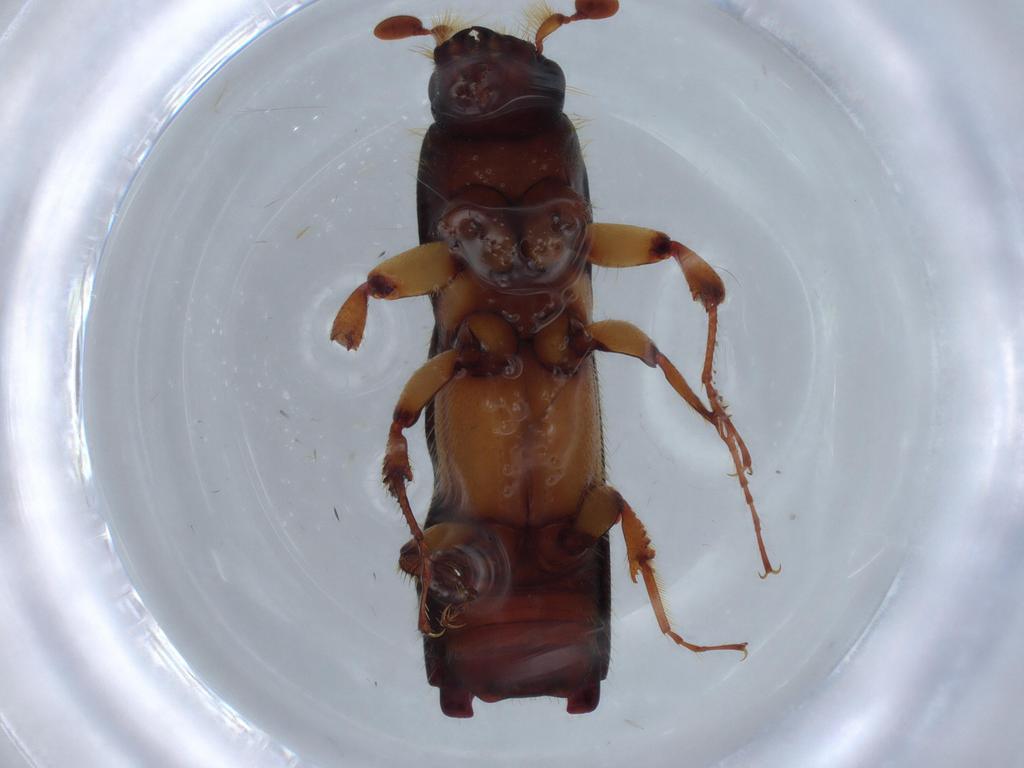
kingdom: Animalia
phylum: Arthropoda
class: Insecta
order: Coleoptera
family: Curculionidae
